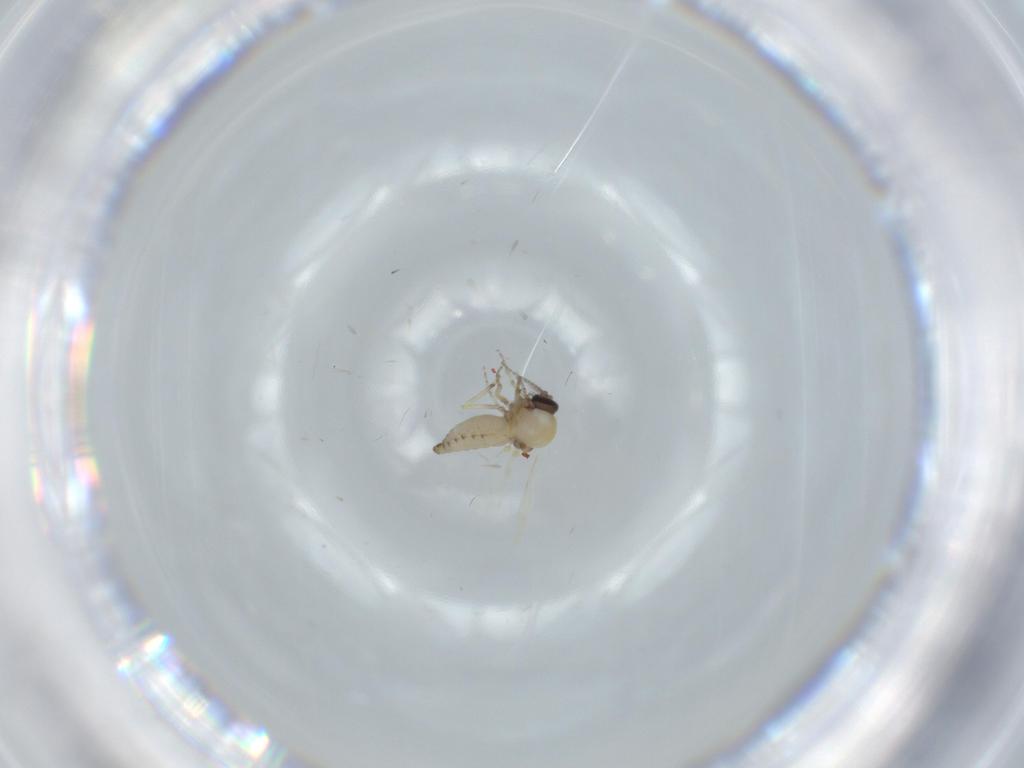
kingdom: Animalia
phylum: Arthropoda
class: Insecta
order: Diptera
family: Ceratopogonidae
